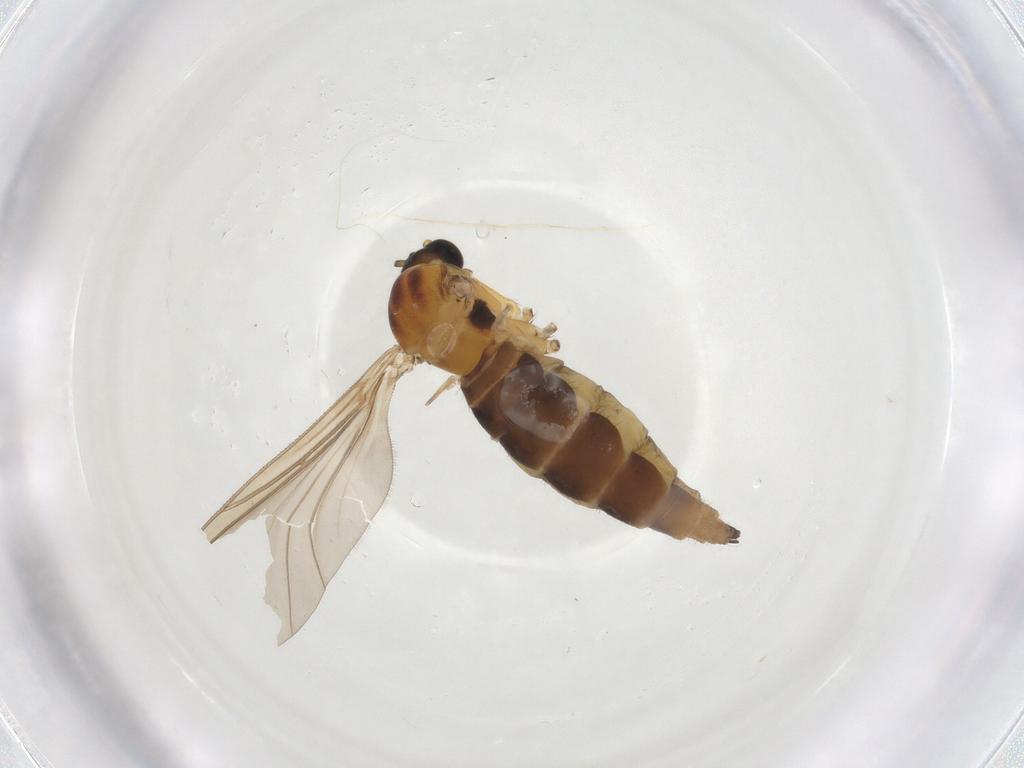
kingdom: Animalia
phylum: Arthropoda
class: Insecta
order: Diptera
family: Sciaridae
